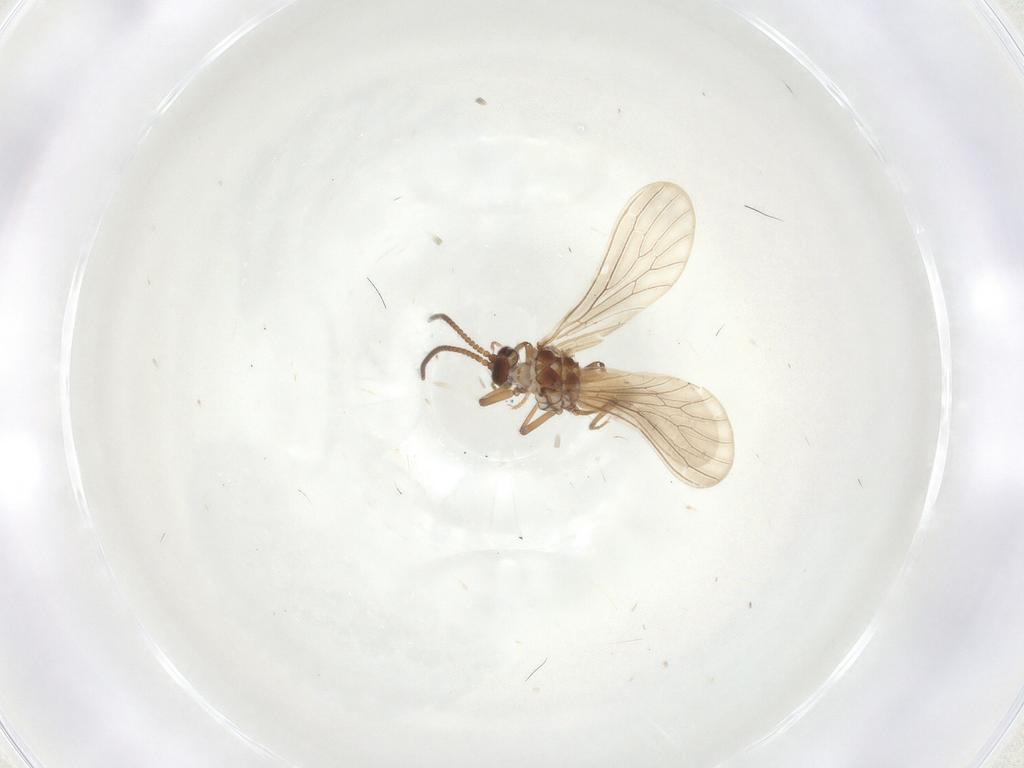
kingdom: Animalia
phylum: Arthropoda
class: Insecta
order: Neuroptera
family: Coniopterygidae
